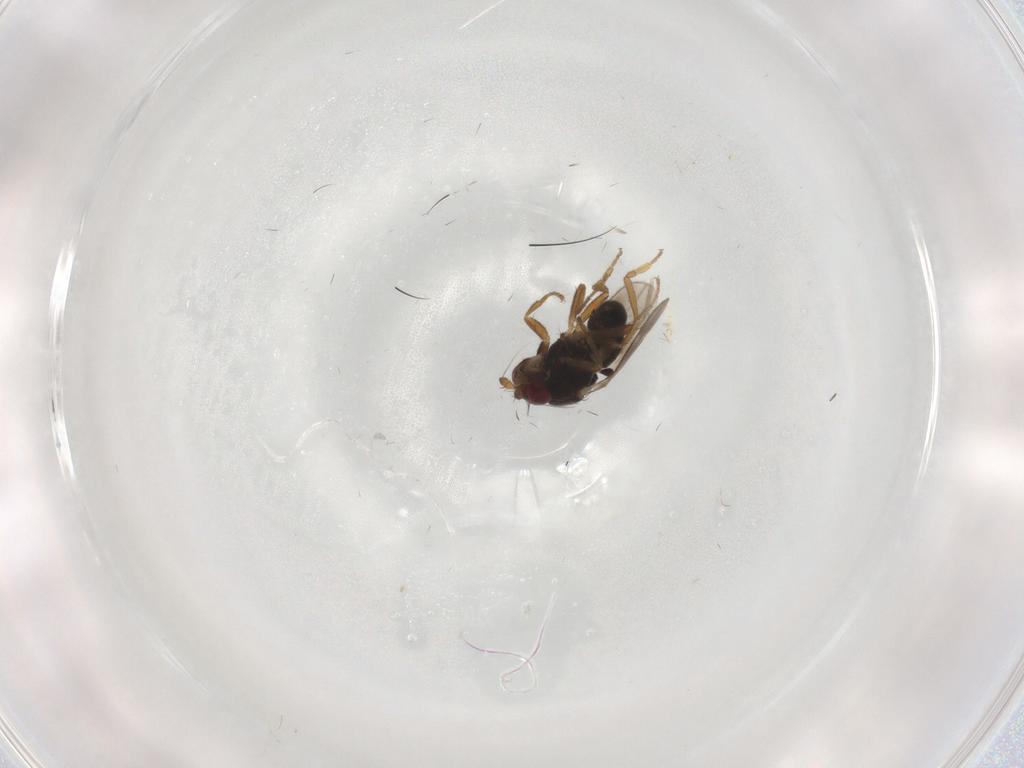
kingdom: Animalia
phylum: Arthropoda
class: Insecta
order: Diptera
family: Sphaeroceridae
